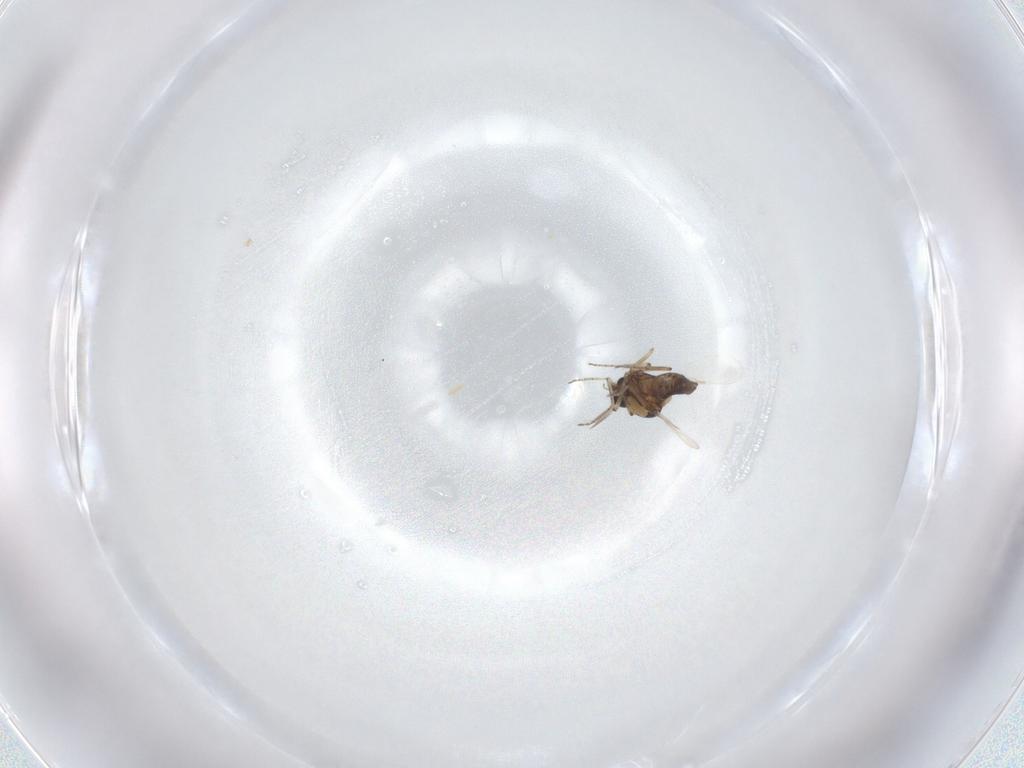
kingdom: Animalia
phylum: Arthropoda
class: Insecta
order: Diptera
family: Ceratopogonidae
